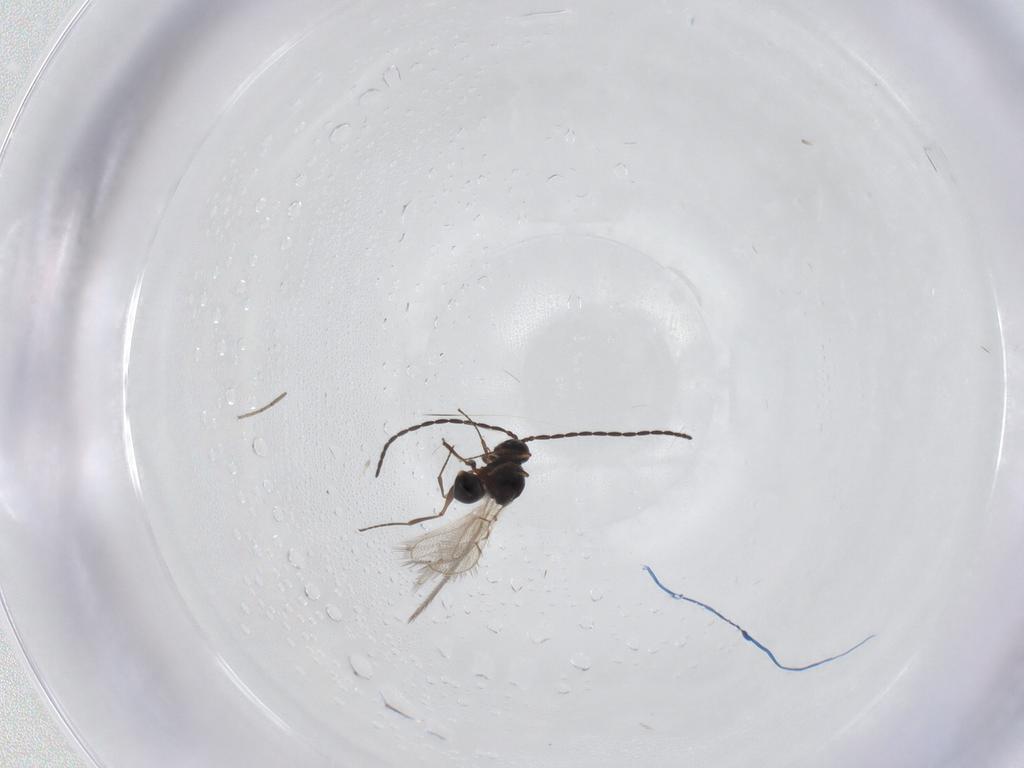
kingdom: Animalia
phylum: Arthropoda
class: Insecta
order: Hymenoptera
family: Figitidae
